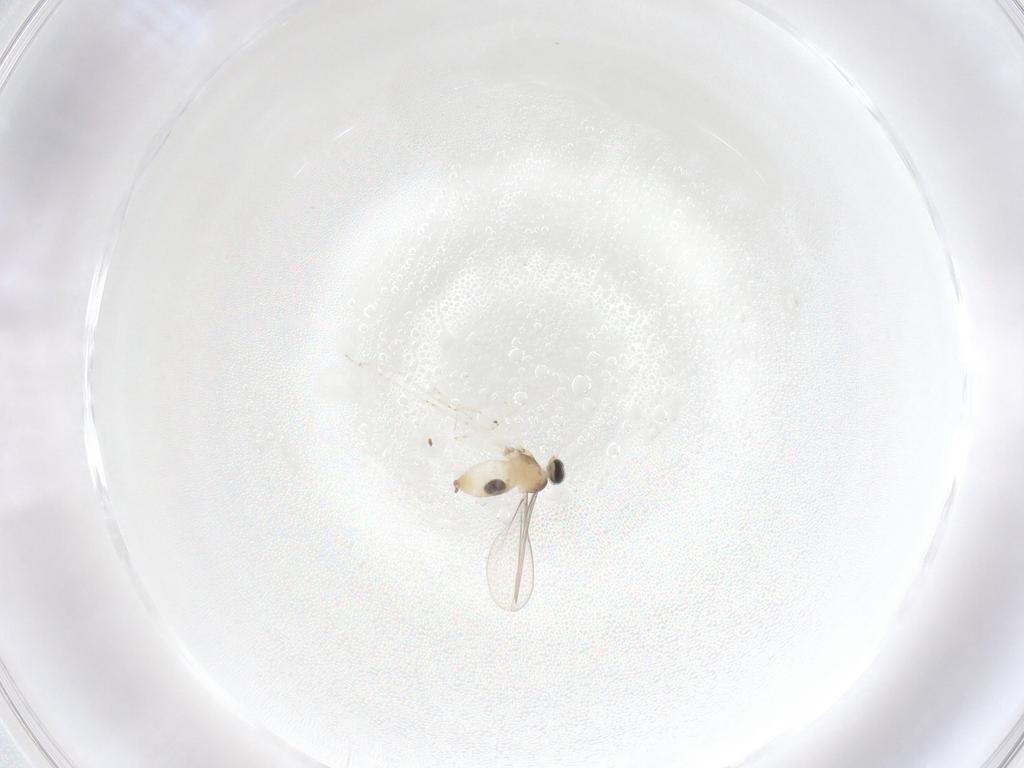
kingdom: Animalia
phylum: Arthropoda
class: Insecta
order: Diptera
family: Cecidomyiidae
